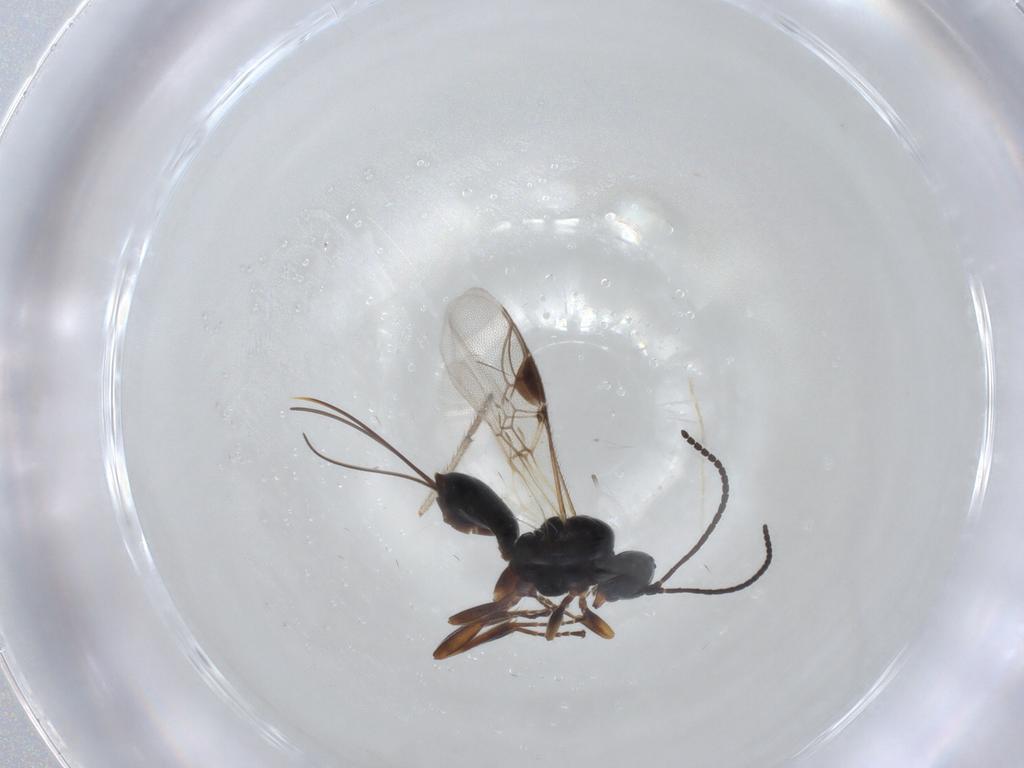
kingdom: Animalia
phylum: Arthropoda
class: Insecta
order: Hymenoptera
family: Braconidae
